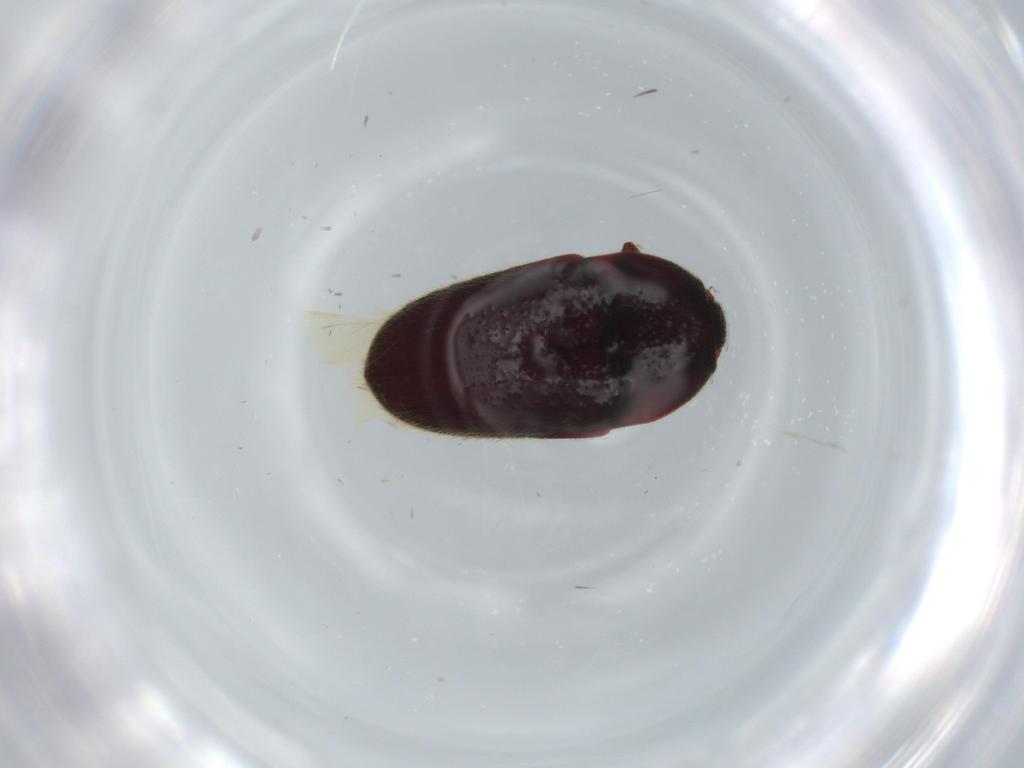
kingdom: Animalia
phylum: Arthropoda
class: Insecta
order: Coleoptera
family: Throscidae
